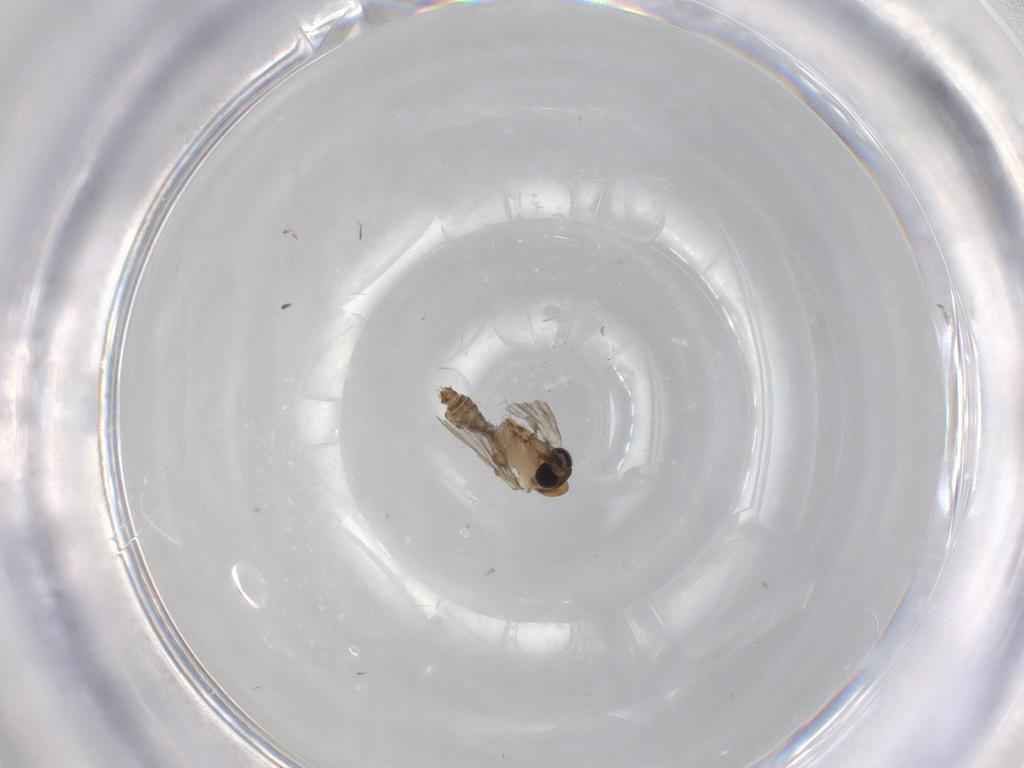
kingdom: Animalia
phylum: Arthropoda
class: Insecta
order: Diptera
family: Psychodidae
